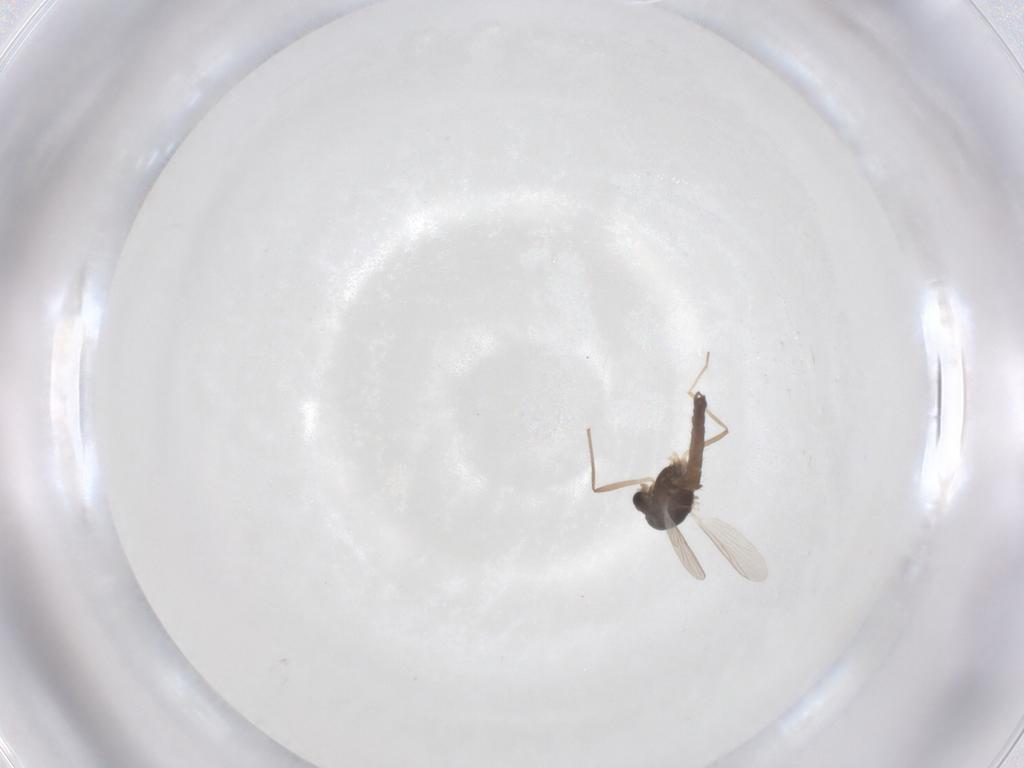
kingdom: Animalia
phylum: Arthropoda
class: Insecta
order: Diptera
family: Chironomidae
